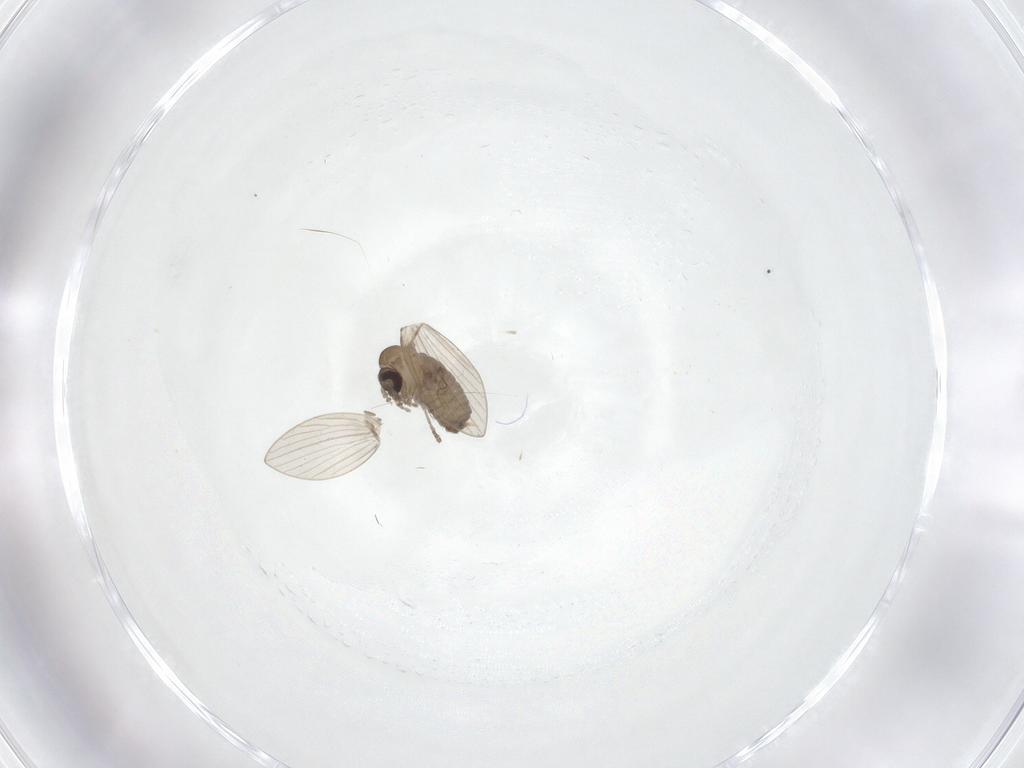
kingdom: Animalia
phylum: Arthropoda
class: Insecta
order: Diptera
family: Psychodidae
